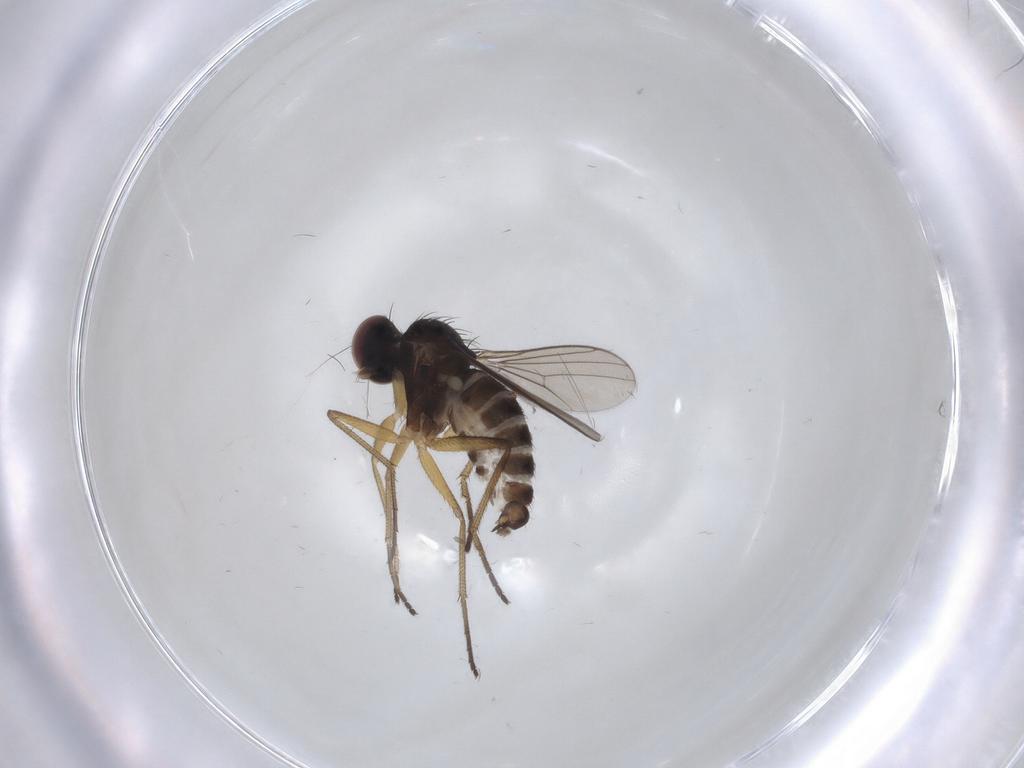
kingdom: Animalia
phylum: Arthropoda
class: Insecta
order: Diptera
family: Dolichopodidae
